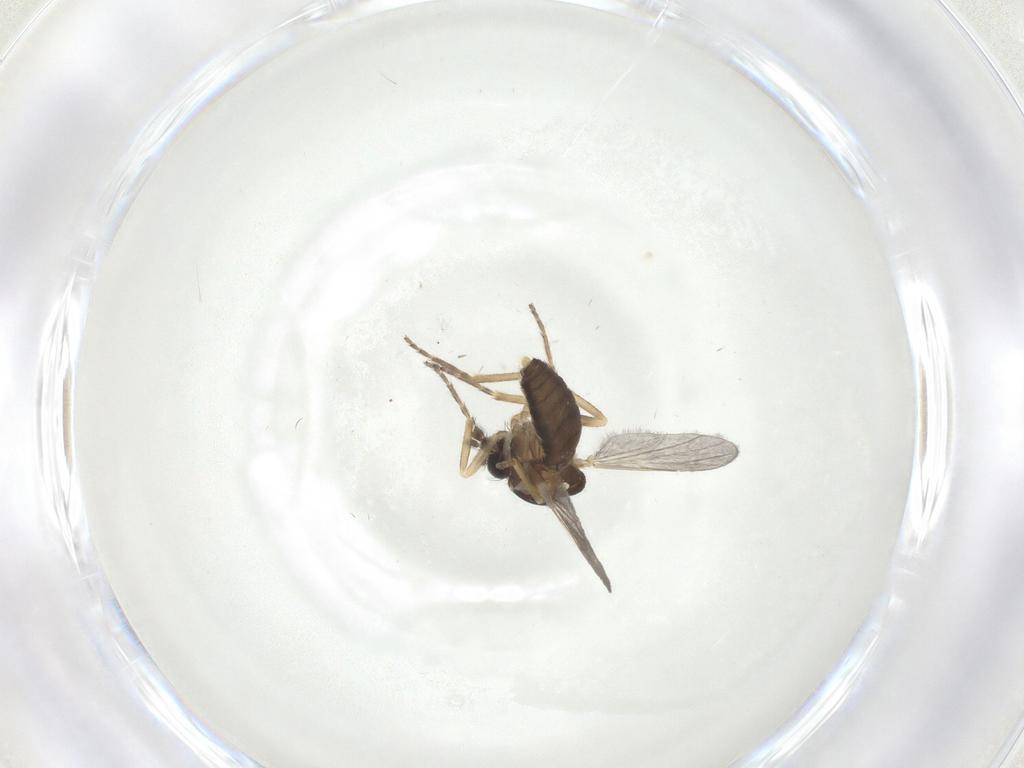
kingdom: Animalia
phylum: Arthropoda
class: Insecta
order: Diptera
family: Ceratopogonidae
